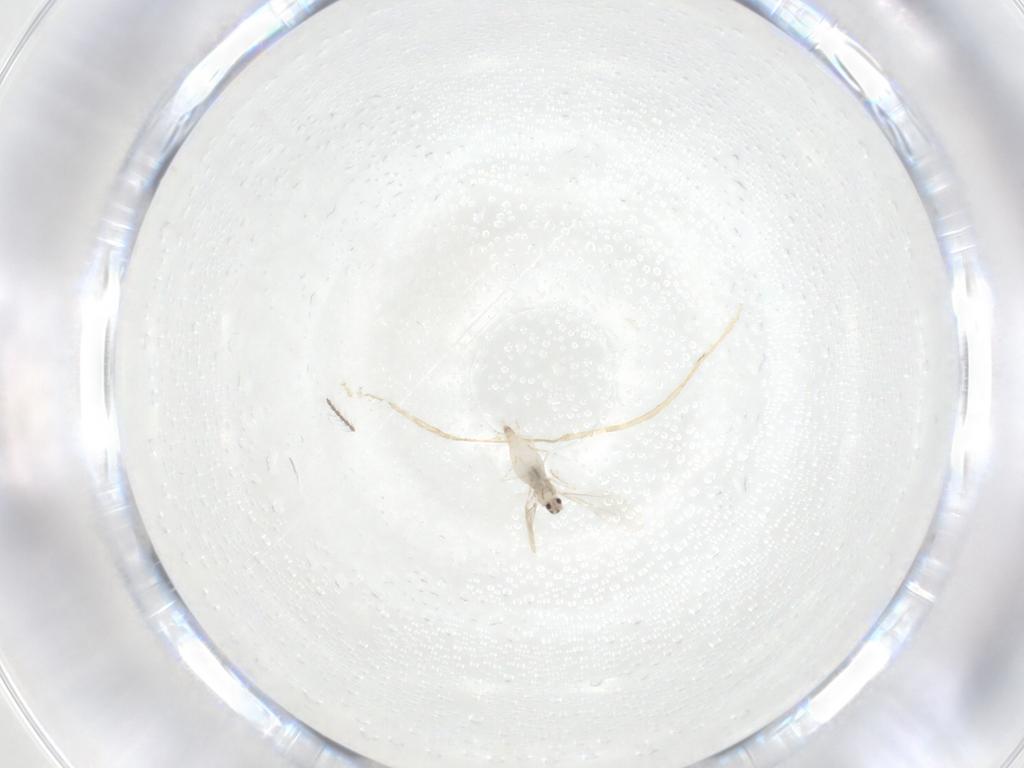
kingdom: Animalia
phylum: Arthropoda
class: Insecta
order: Diptera
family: Cecidomyiidae
